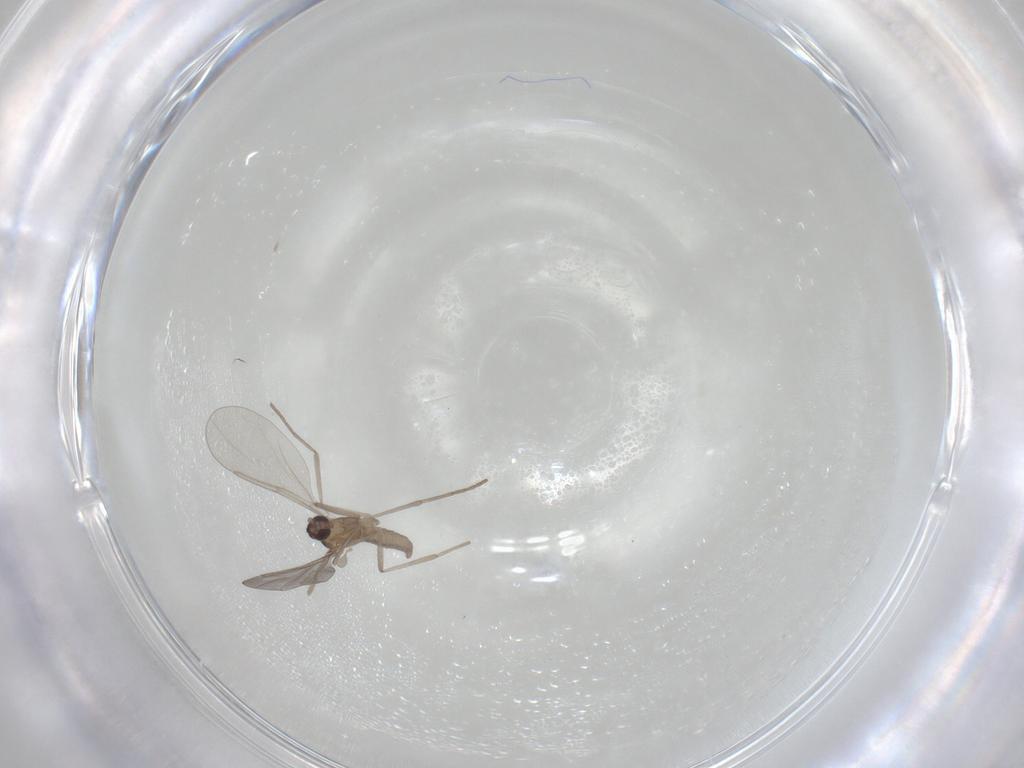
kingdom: Animalia
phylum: Arthropoda
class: Insecta
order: Diptera
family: Cecidomyiidae
